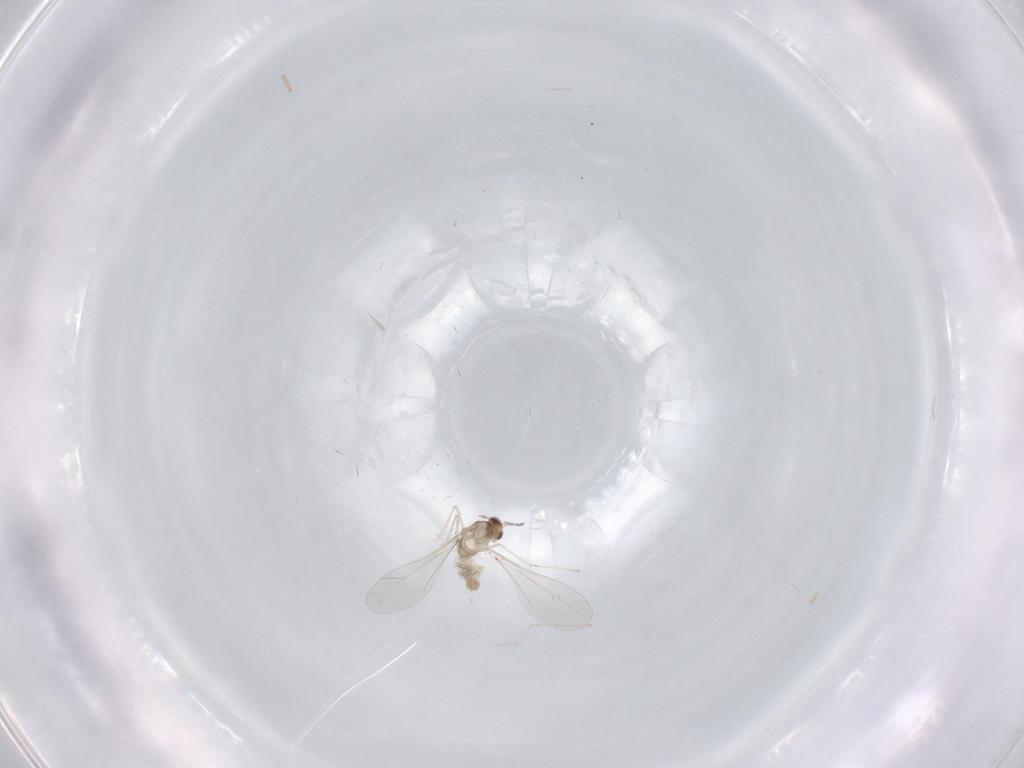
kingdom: Animalia
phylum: Arthropoda
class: Insecta
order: Diptera
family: Cecidomyiidae
